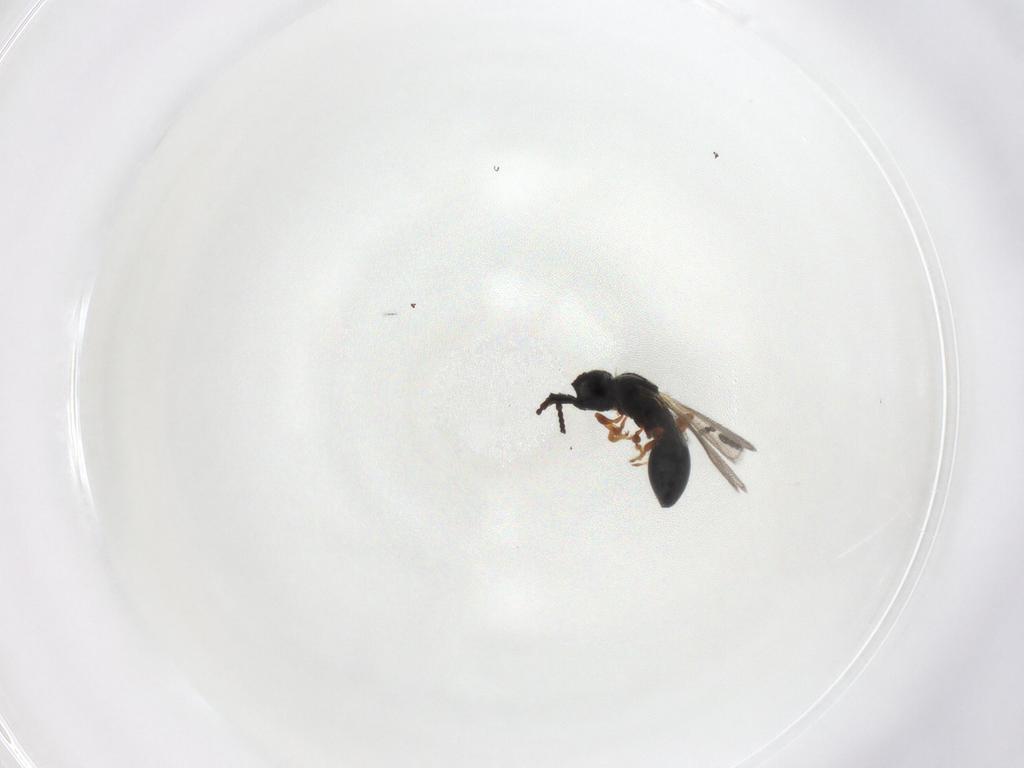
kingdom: Animalia
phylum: Arthropoda
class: Insecta
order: Hymenoptera
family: Diapriidae
